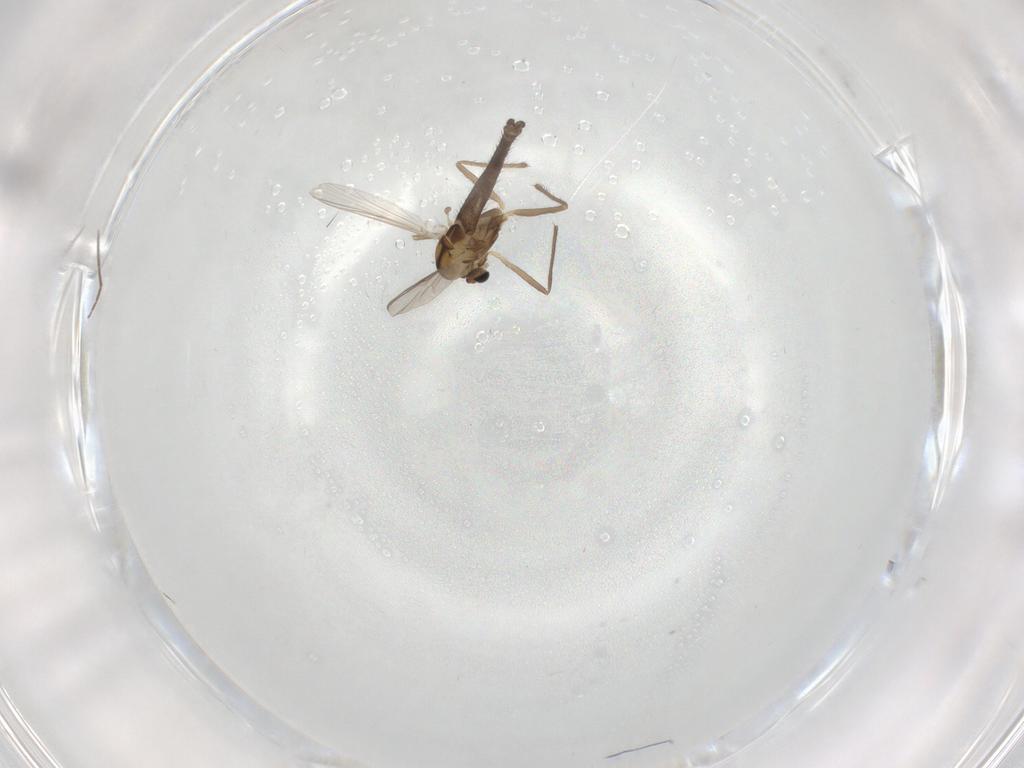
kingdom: Animalia
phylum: Arthropoda
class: Insecta
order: Diptera
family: Chironomidae
